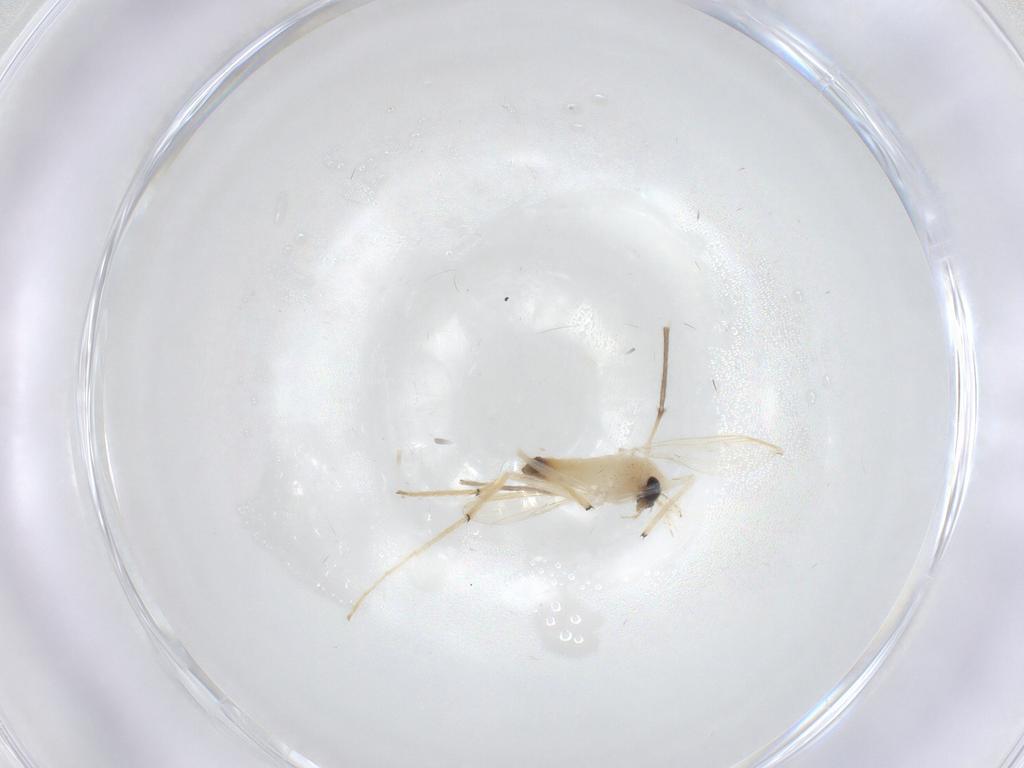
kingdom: Animalia
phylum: Arthropoda
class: Insecta
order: Diptera
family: Chironomidae
